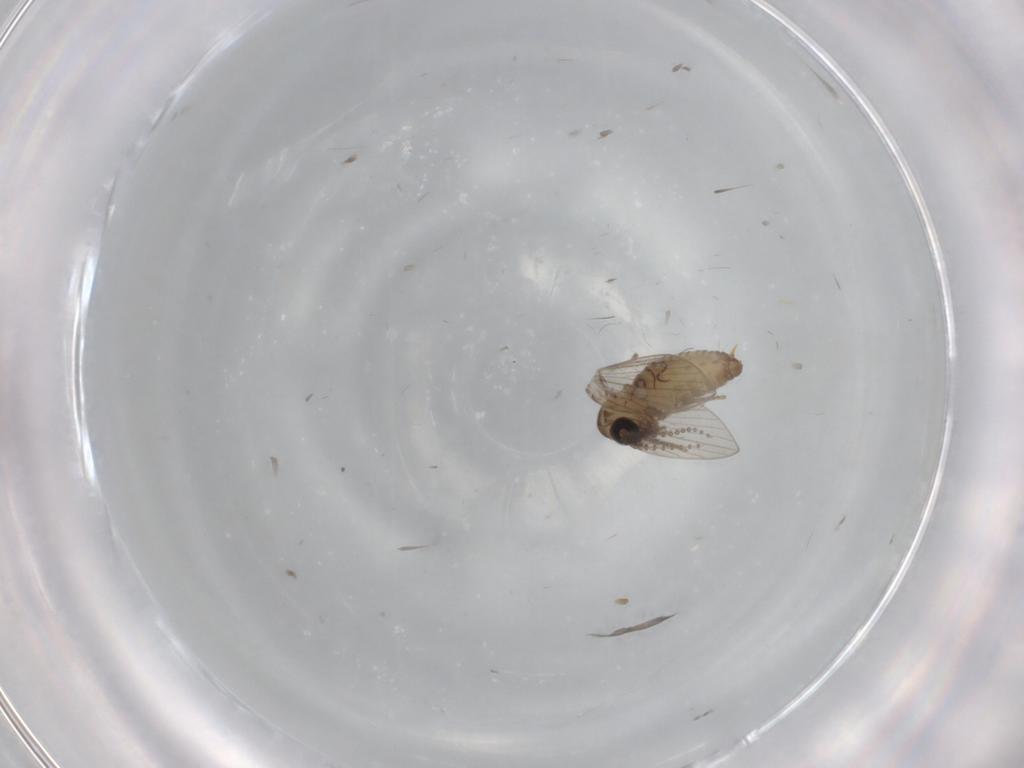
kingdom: Animalia
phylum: Arthropoda
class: Insecta
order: Diptera
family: Psychodidae
